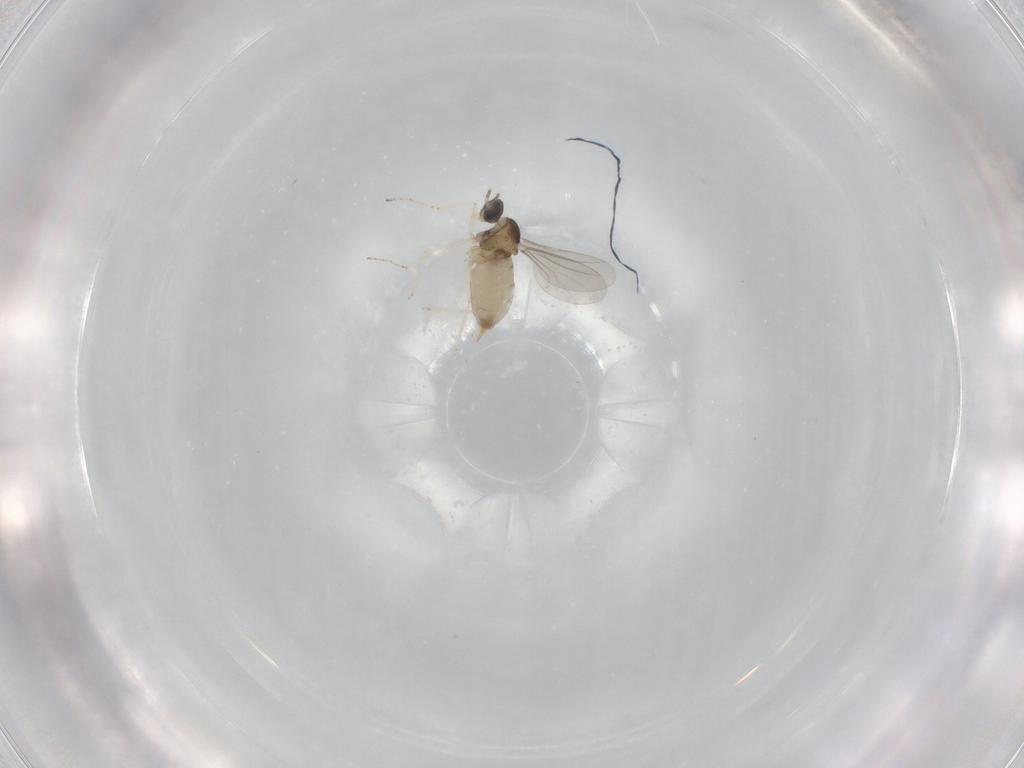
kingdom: Animalia
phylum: Arthropoda
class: Insecta
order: Diptera
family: Cecidomyiidae
